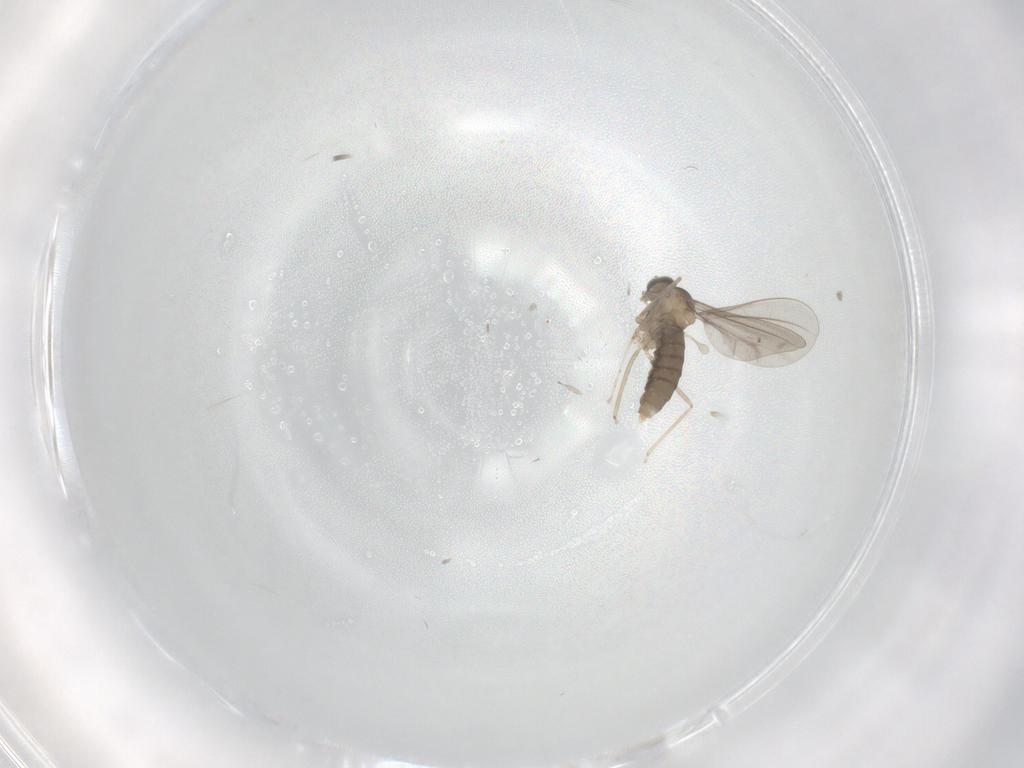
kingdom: Animalia
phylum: Arthropoda
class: Insecta
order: Diptera
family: Cecidomyiidae
